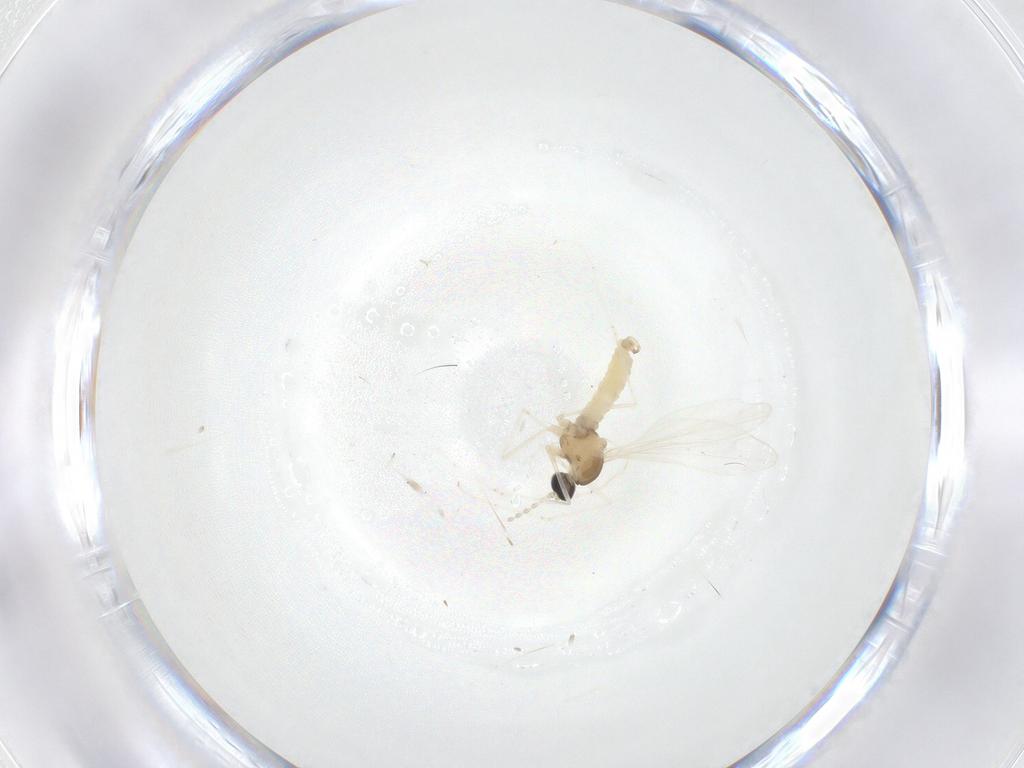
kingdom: Animalia
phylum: Arthropoda
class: Insecta
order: Diptera
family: Cecidomyiidae
